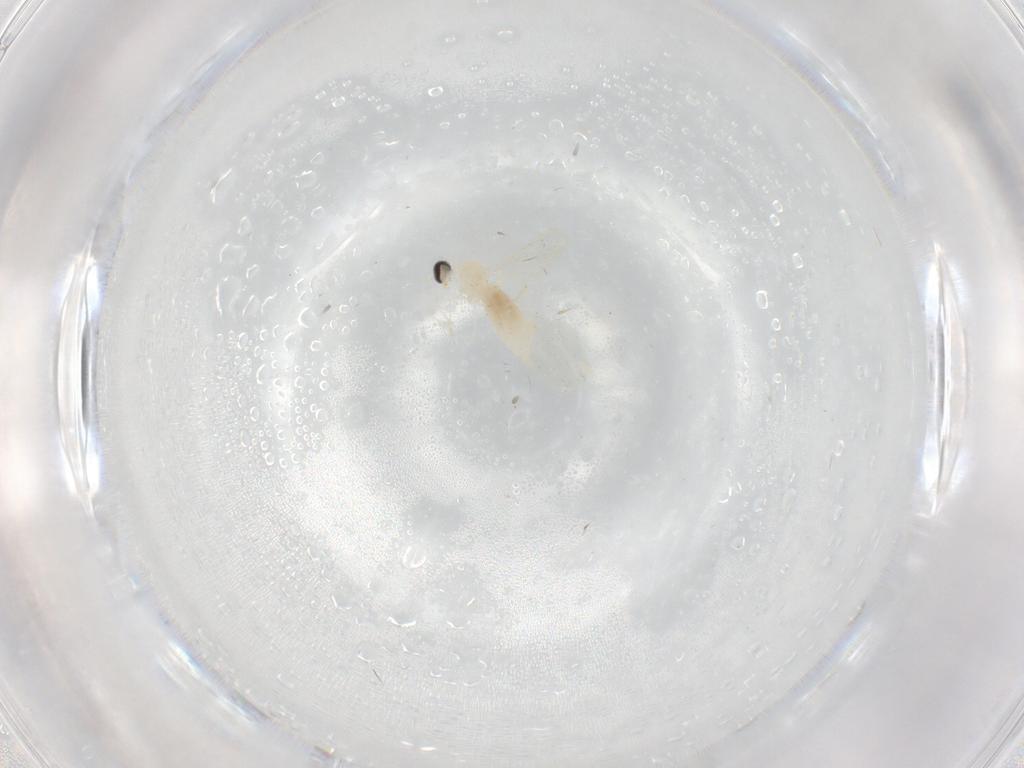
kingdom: Animalia
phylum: Arthropoda
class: Insecta
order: Diptera
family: Cecidomyiidae
